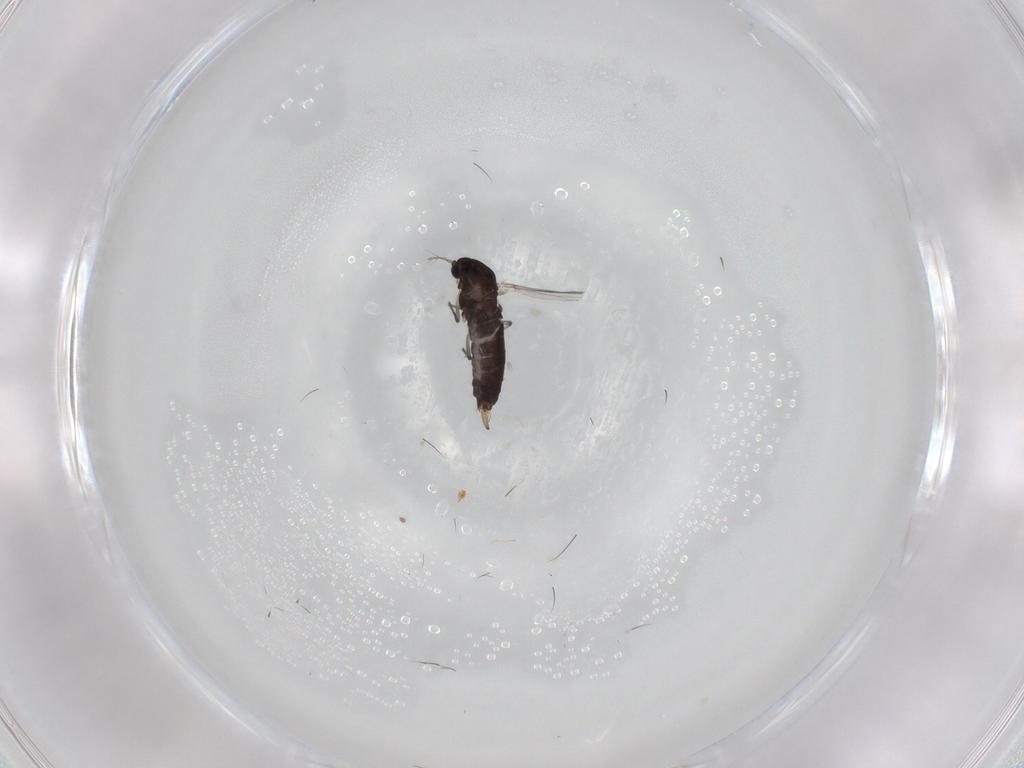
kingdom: Animalia
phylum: Arthropoda
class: Insecta
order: Diptera
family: Chironomidae
